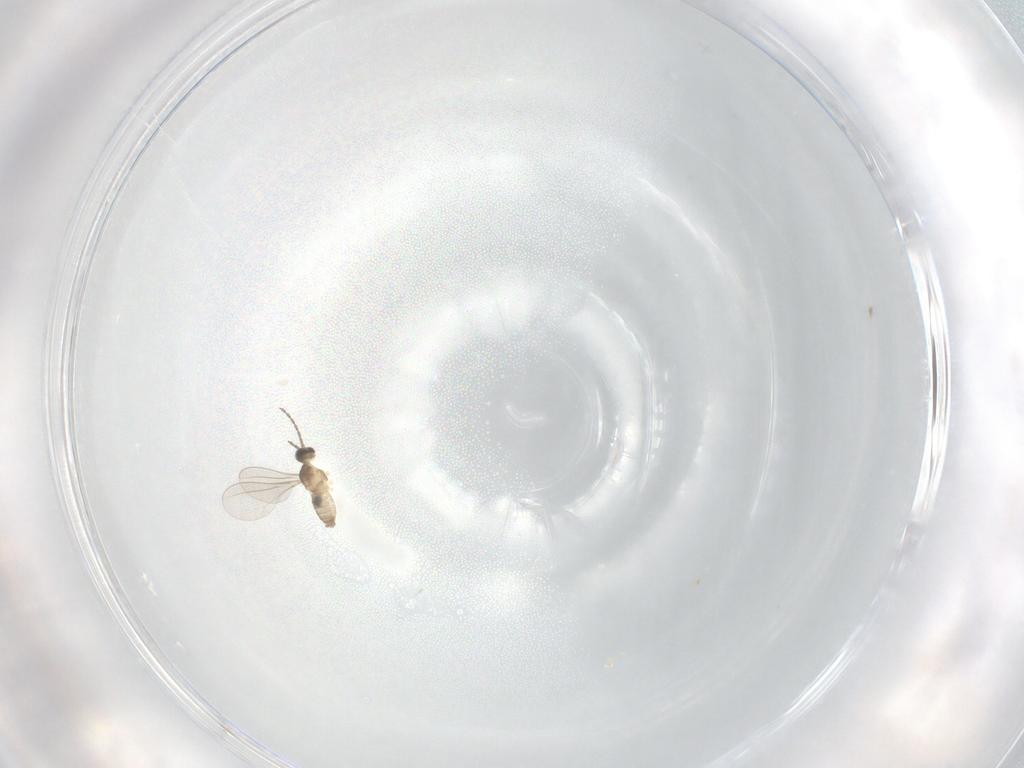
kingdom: Animalia
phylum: Arthropoda
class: Insecta
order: Diptera
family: Cecidomyiidae
